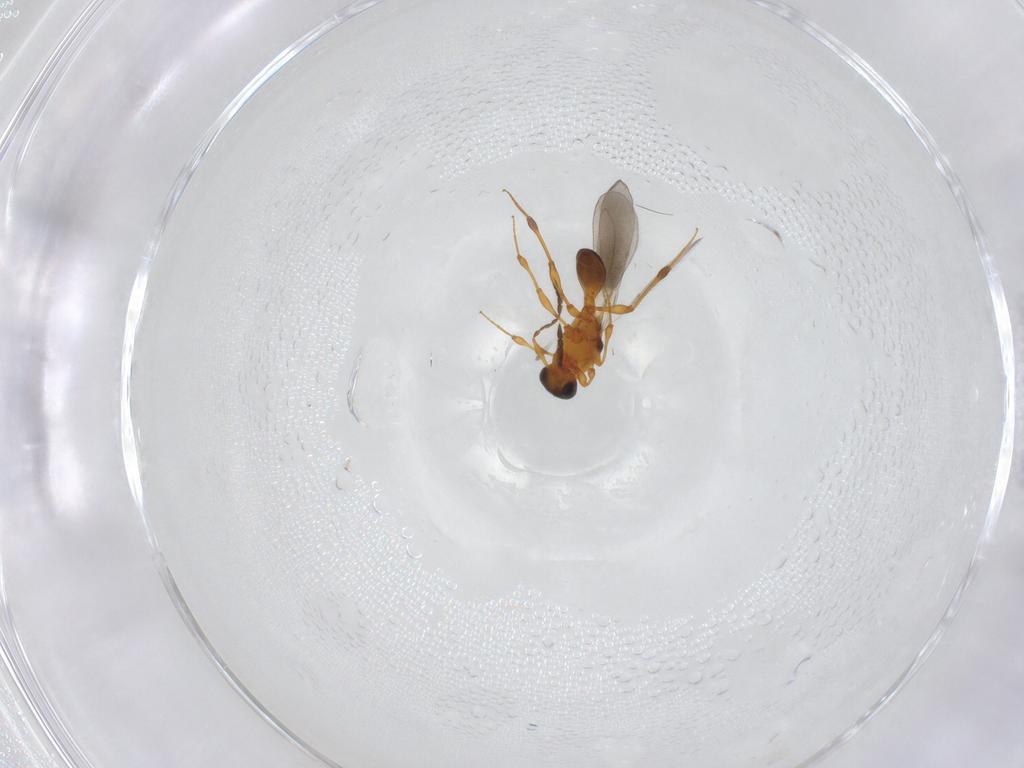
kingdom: Animalia
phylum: Arthropoda
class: Insecta
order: Hymenoptera
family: Platygastridae
